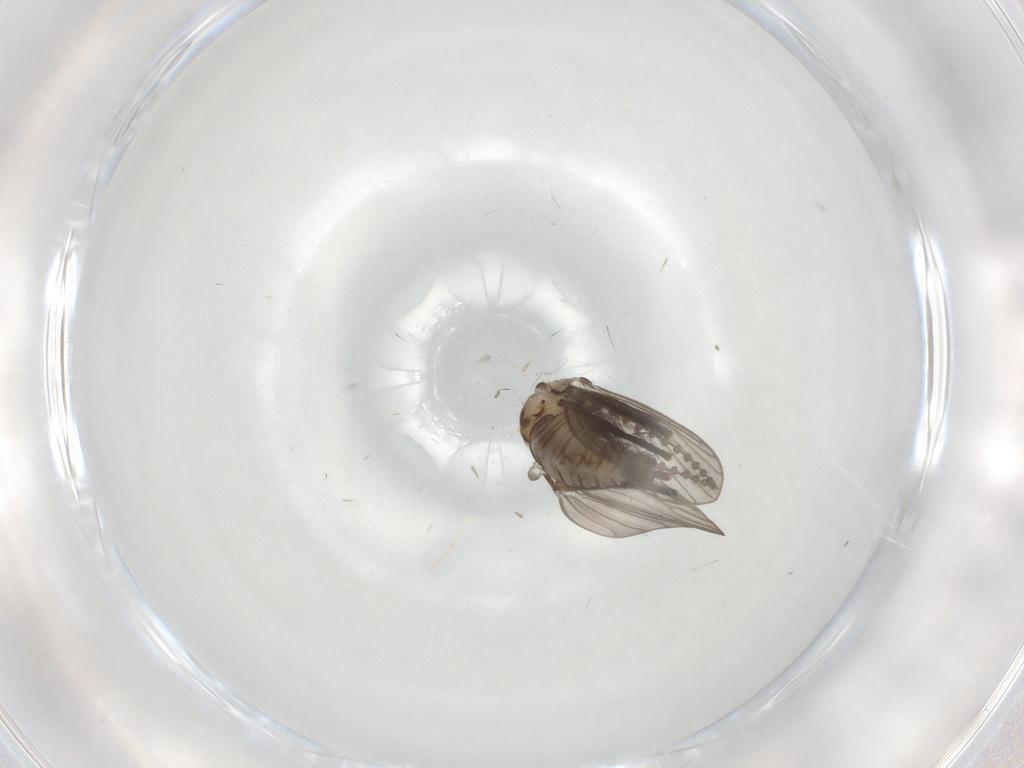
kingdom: Animalia
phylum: Arthropoda
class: Insecta
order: Diptera
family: Psychodidae
